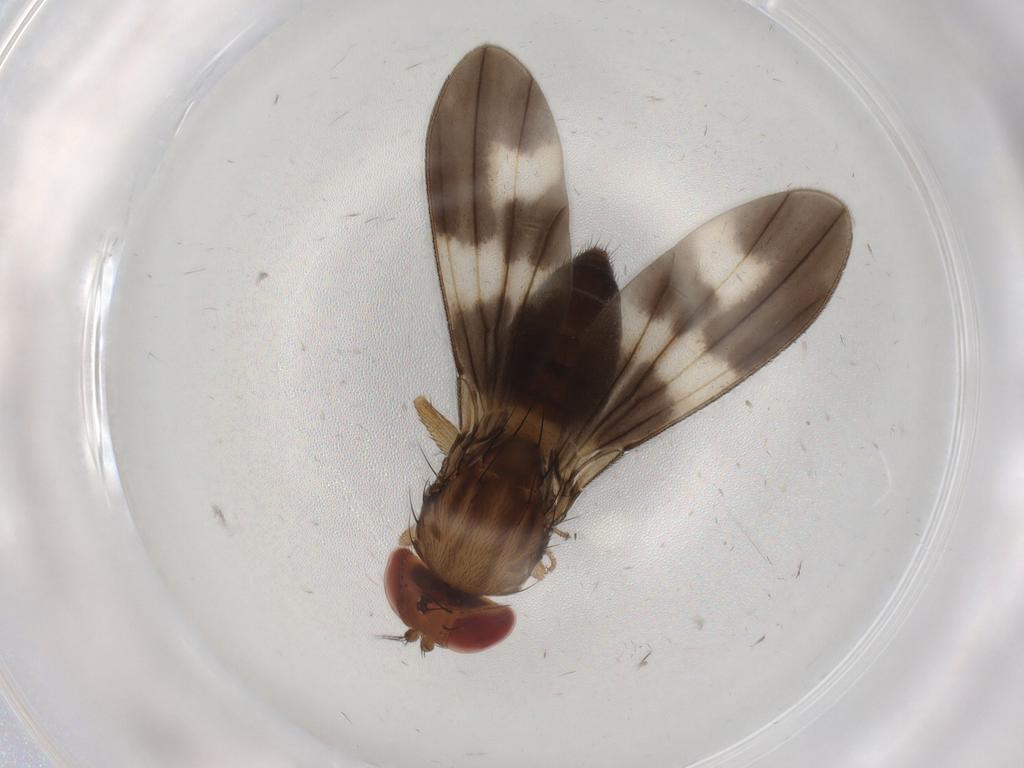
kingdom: Animalia
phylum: Arthropoda
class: Insecta
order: Diptera
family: Drosophilidae
